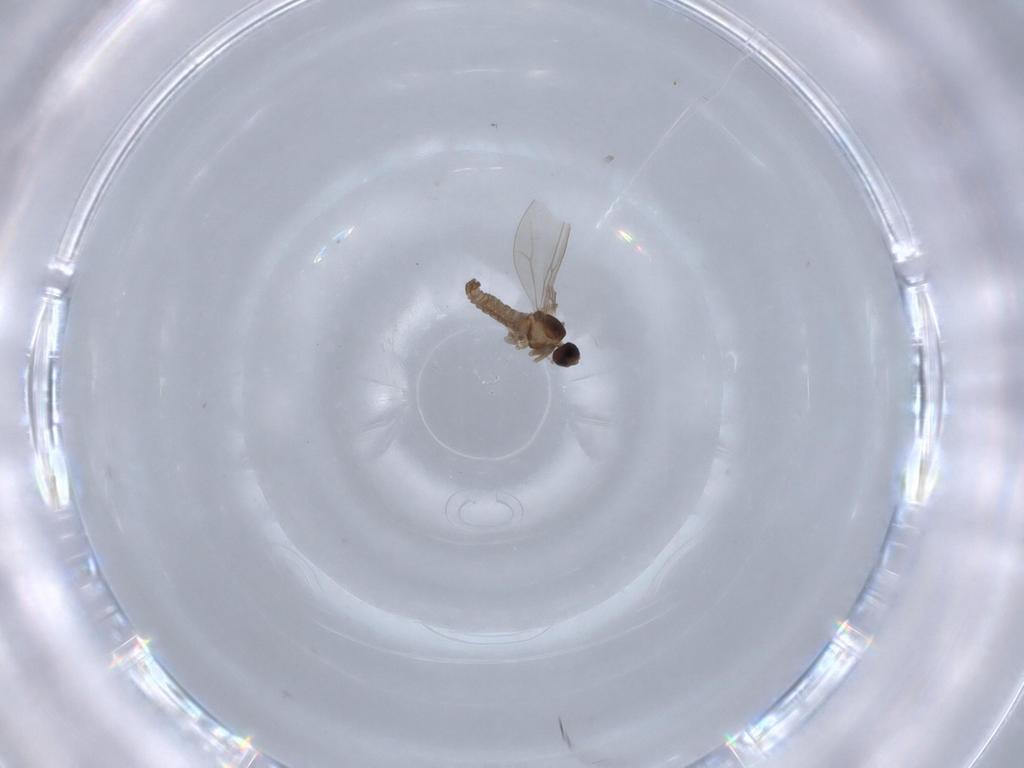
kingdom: Animalia
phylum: Arthropoda
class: Insecta
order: Diptera
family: Cecidomyiidae
